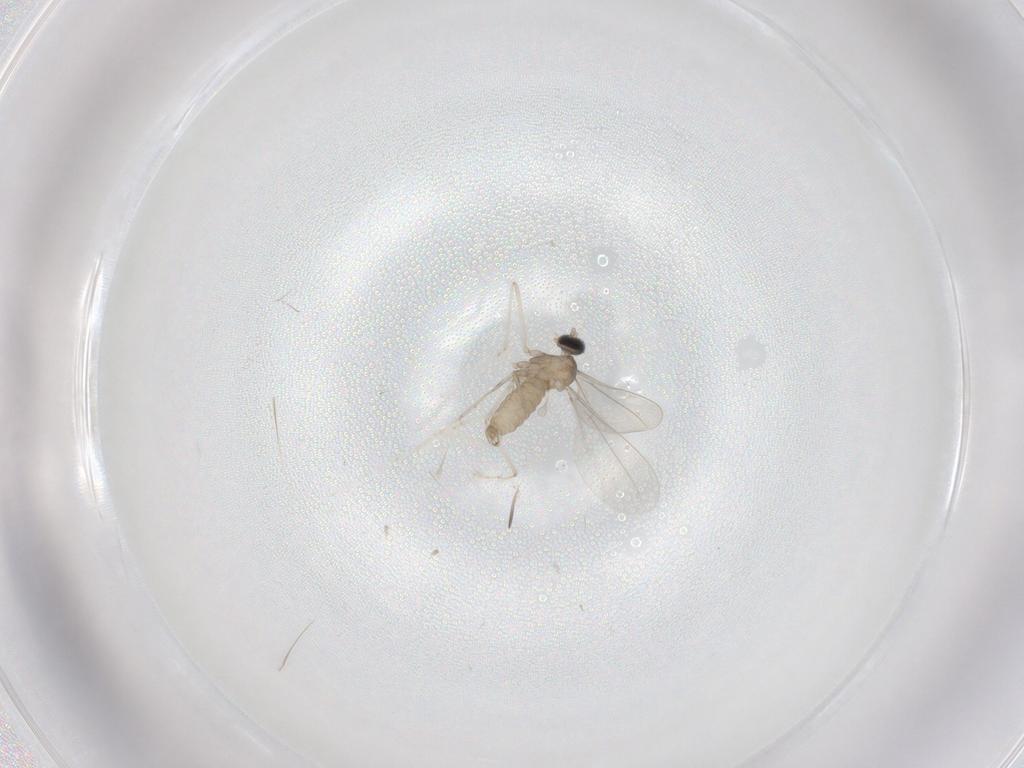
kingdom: Animalia
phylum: Arthropoda
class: Insecta
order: Diptera
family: Cecidomyiidae
